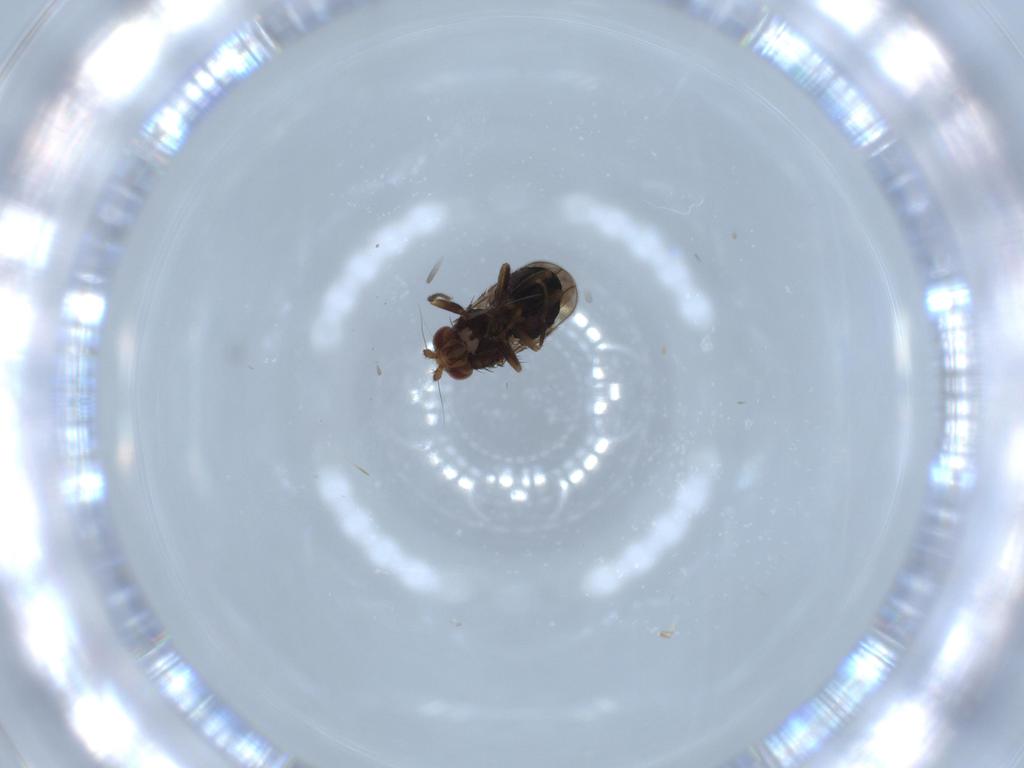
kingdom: Animalia
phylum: Arthropoda
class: Insecta
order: Diptera
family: Sphaeroceridae
